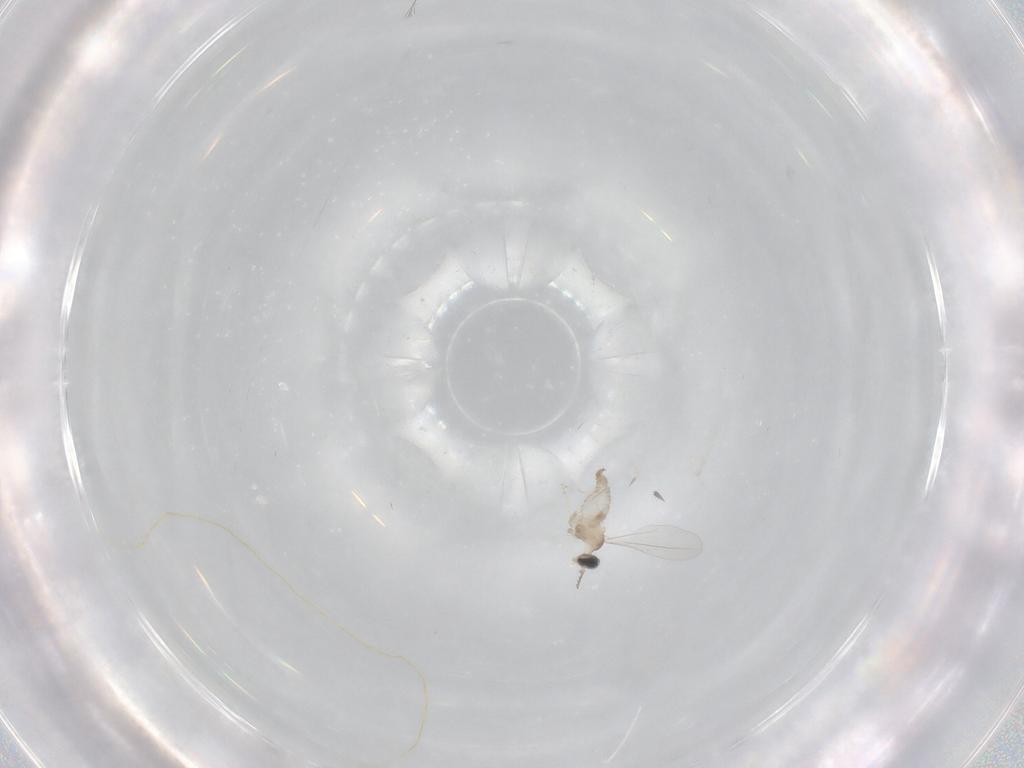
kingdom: Animalia
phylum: Arthropoda
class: Insecta
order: Diptera
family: Cecidomyiidae
